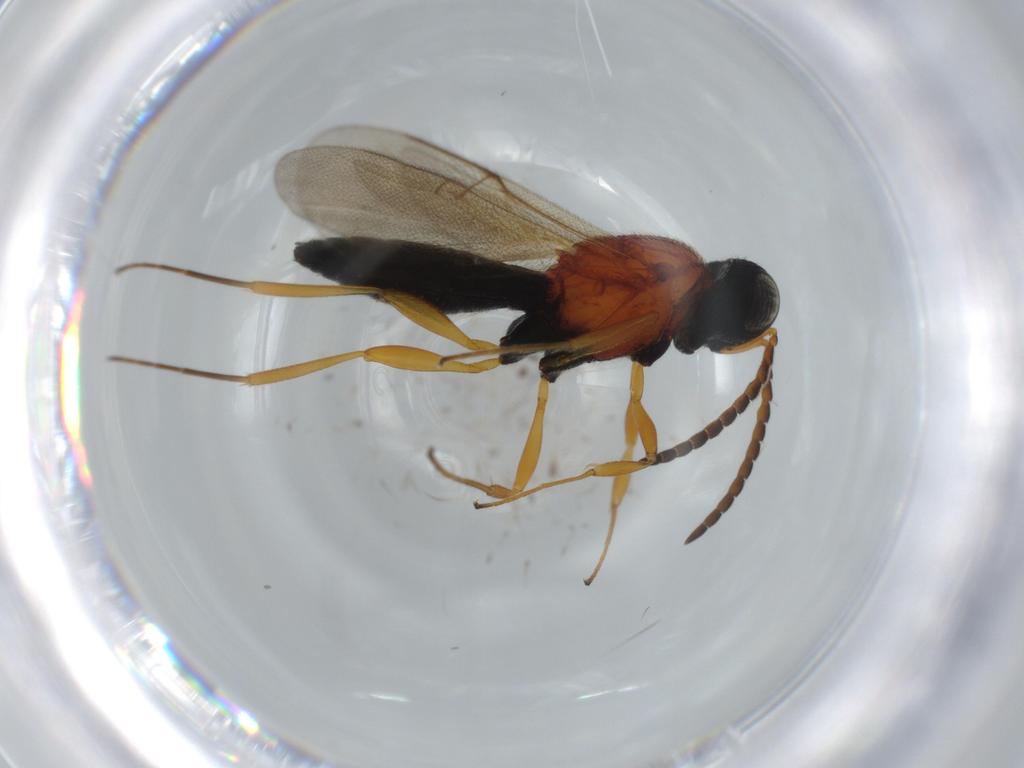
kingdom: Animalia
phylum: Arthropoda
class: Insecta
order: Hymenoptera
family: Scelionidae
